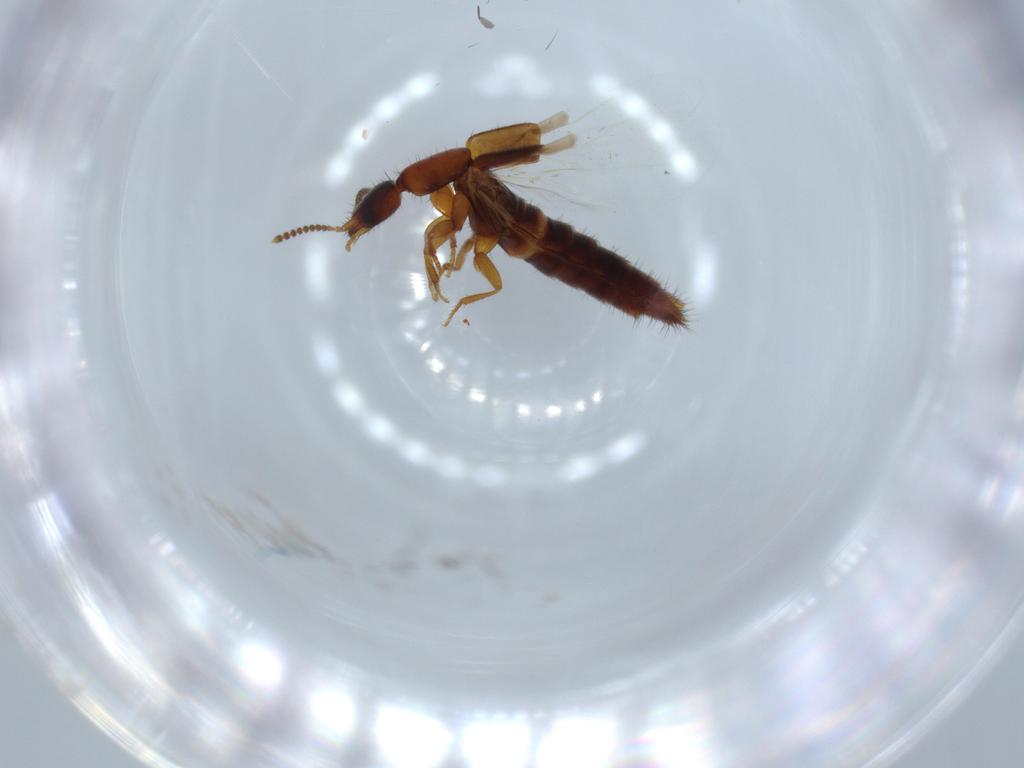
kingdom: Animalia
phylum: Arthropoda
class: Insecta
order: Coleoptera
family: Staphylinidae
